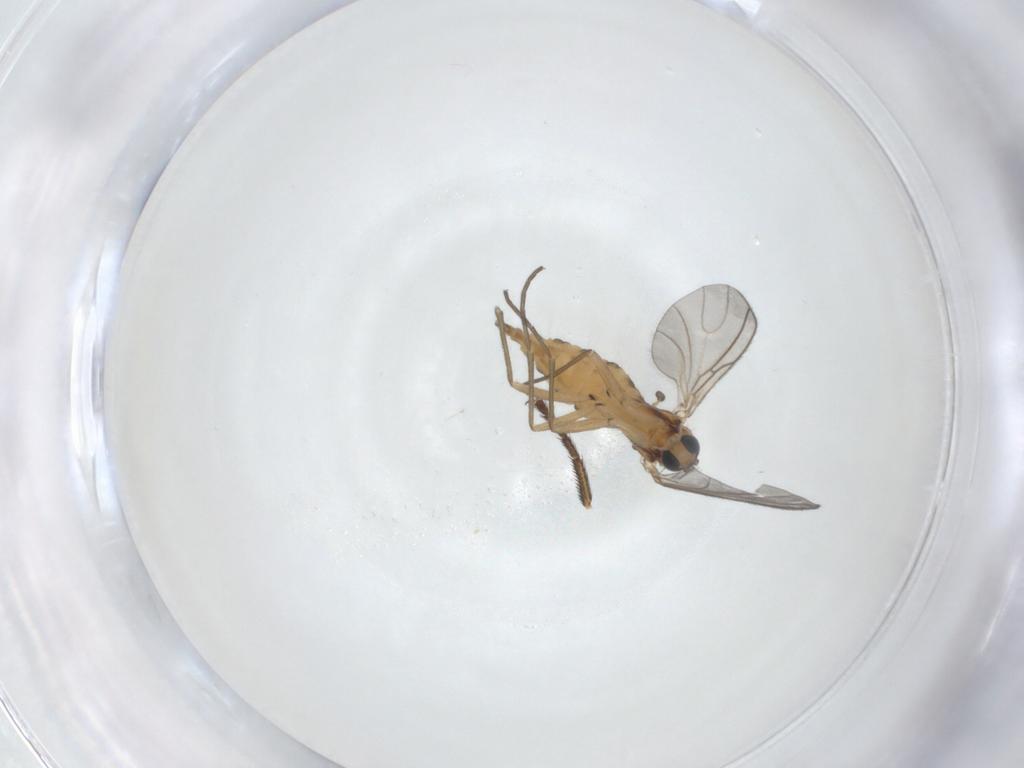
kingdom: Animalia
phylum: Arthropoda
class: Insecta
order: Diptera
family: Sciaridae
